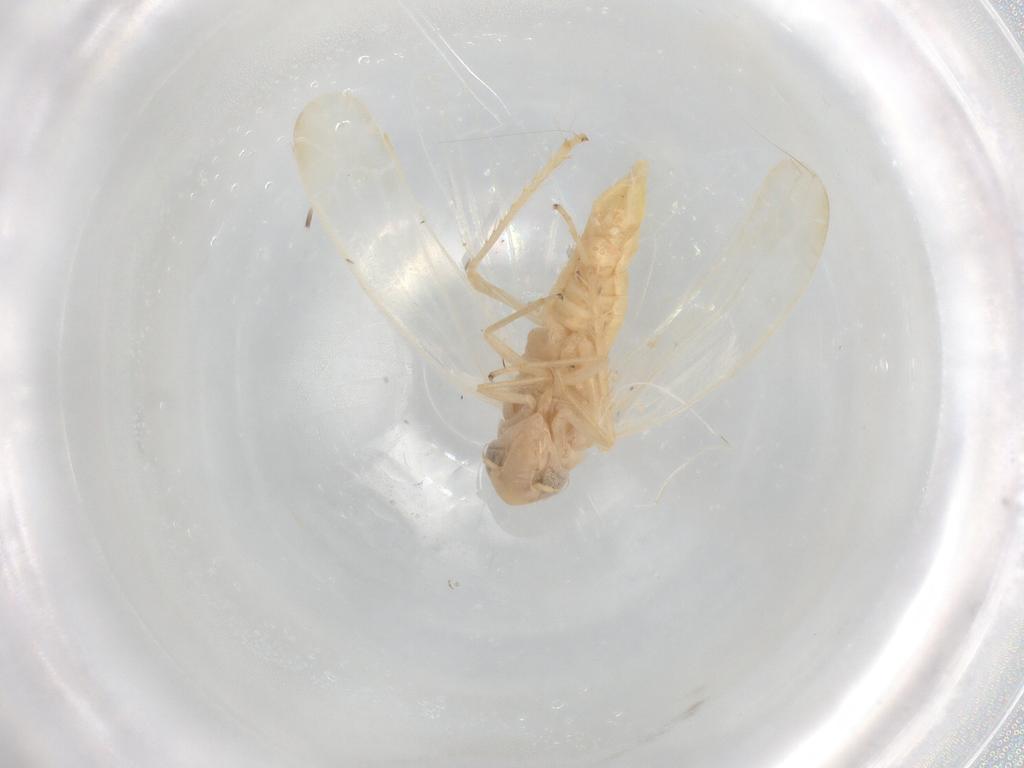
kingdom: Animalia
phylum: Arthropoda
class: Insecta
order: Hemiptera
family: Cicadellidae
